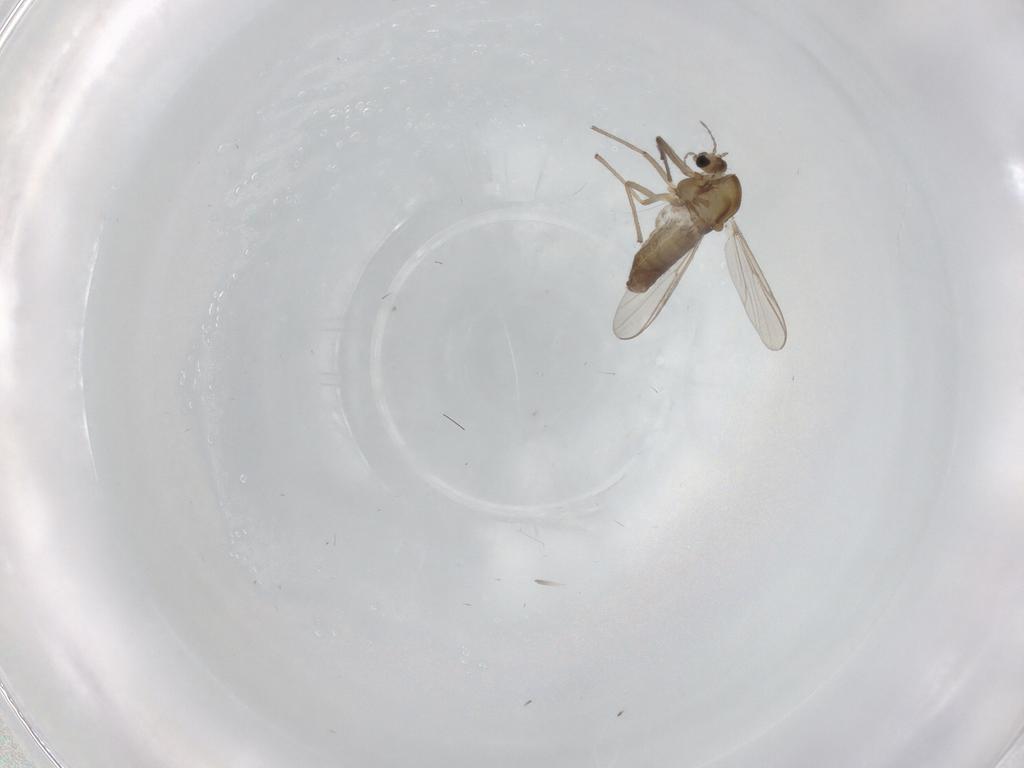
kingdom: Animalia
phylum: Arthropoda
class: Insecta
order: Diptera
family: Chironomidae
